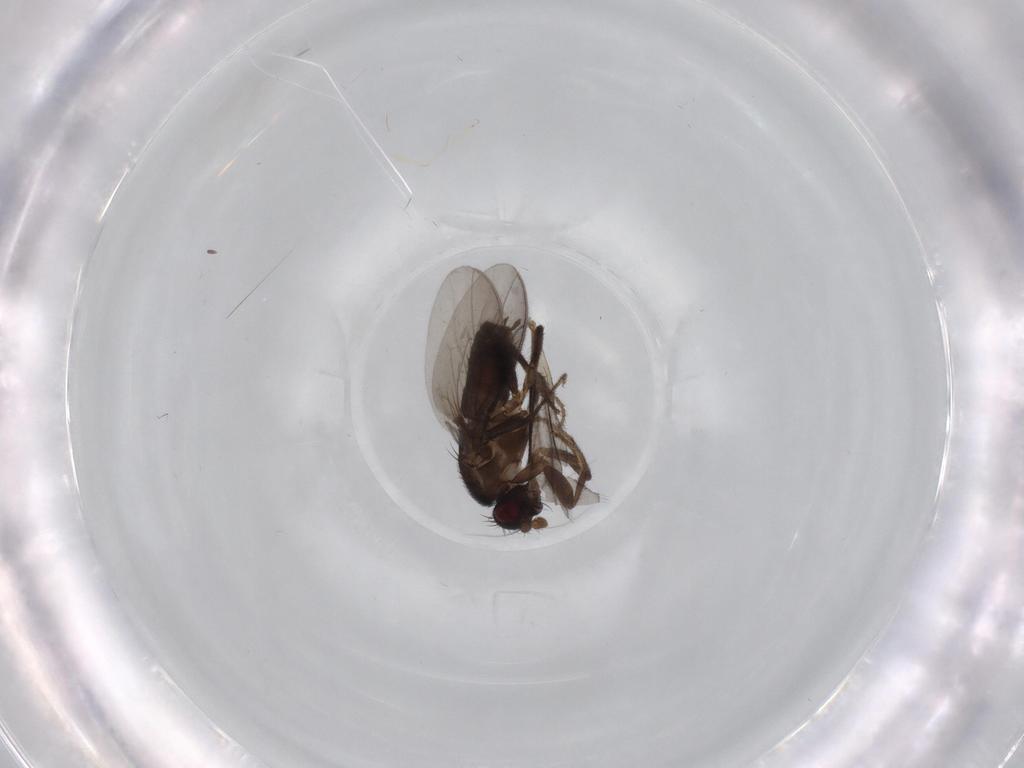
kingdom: Animalia
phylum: Arthropoda
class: Insecta
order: Diptera
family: Sphaeroceridae
